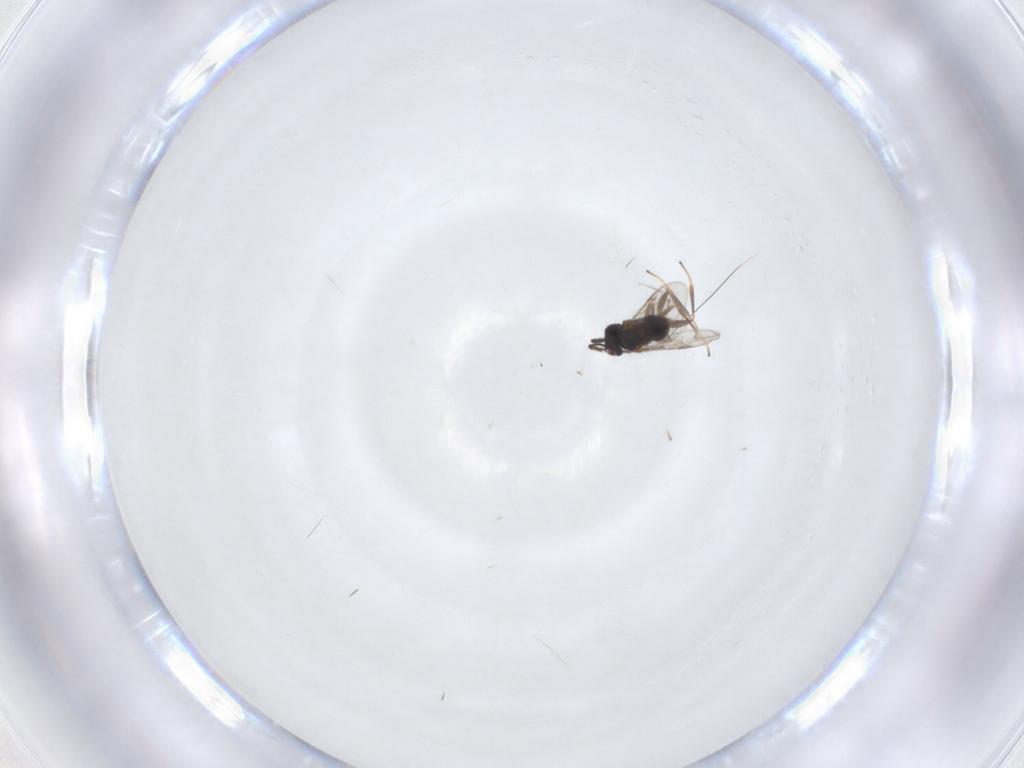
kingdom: Animalia
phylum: Arthropoda
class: Insecta
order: Hymenoptera
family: Encyrtidae
